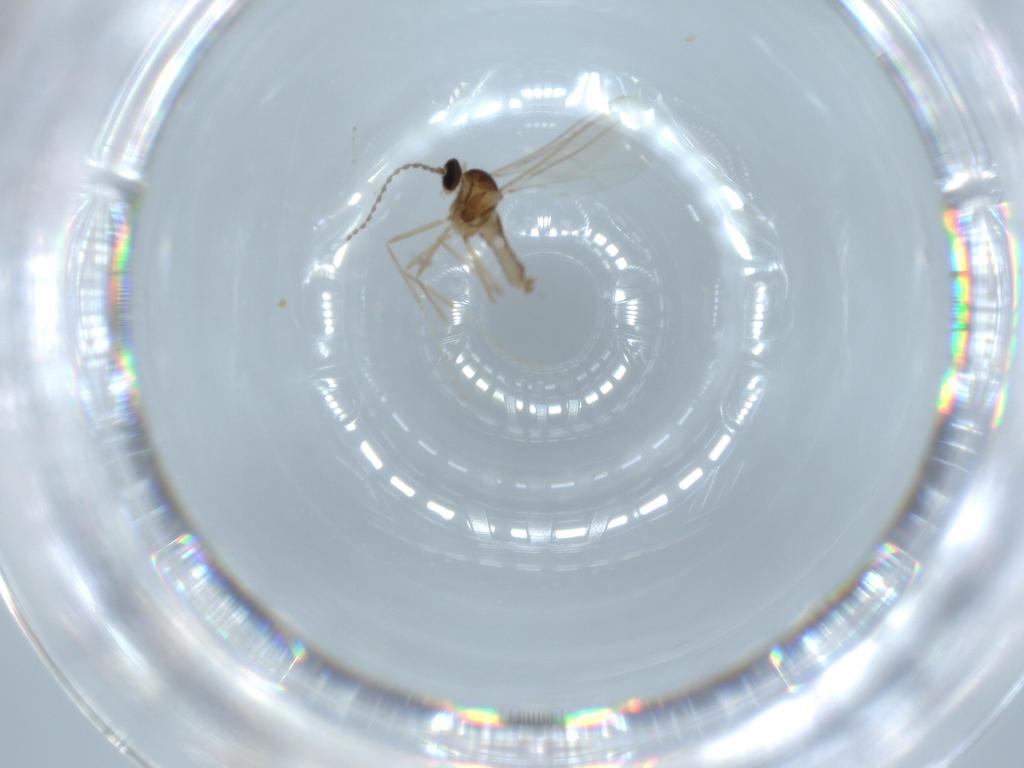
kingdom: Animalia
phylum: Arthropoda
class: Insecta
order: Diptera
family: Cecidomyiidae
